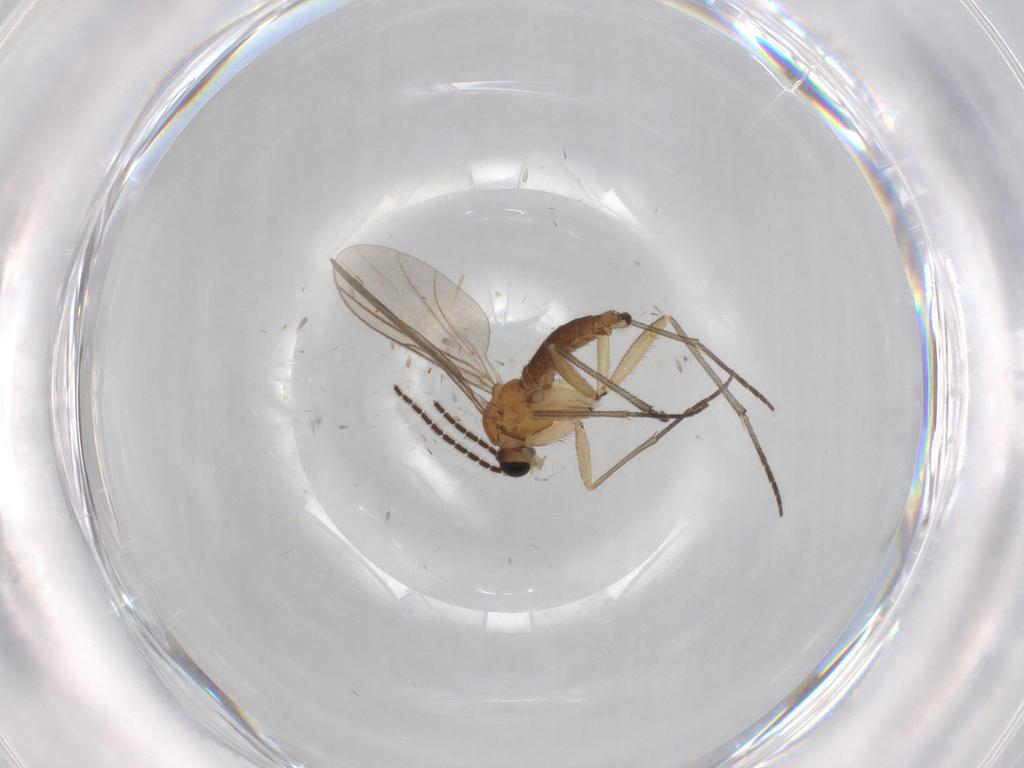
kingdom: Animalia
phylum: Arthropoda
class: Insecta
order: Diptera
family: Sciaridae
